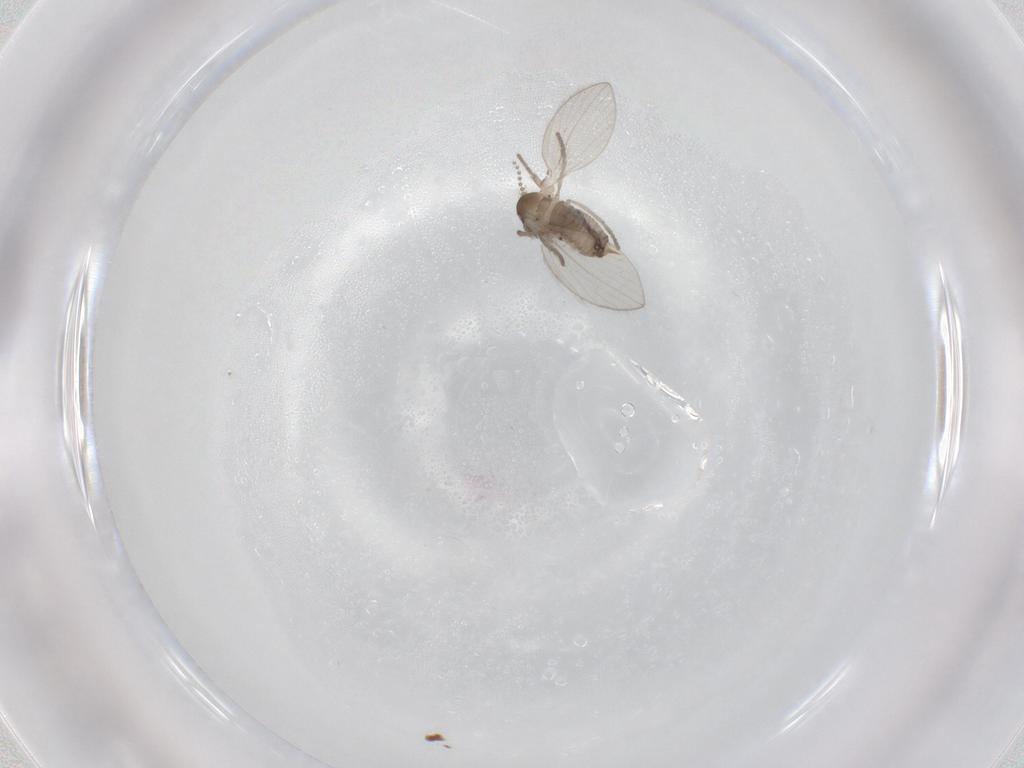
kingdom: Animalia
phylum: Arthropoda
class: Insecta
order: Diptera
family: Psychodidae
